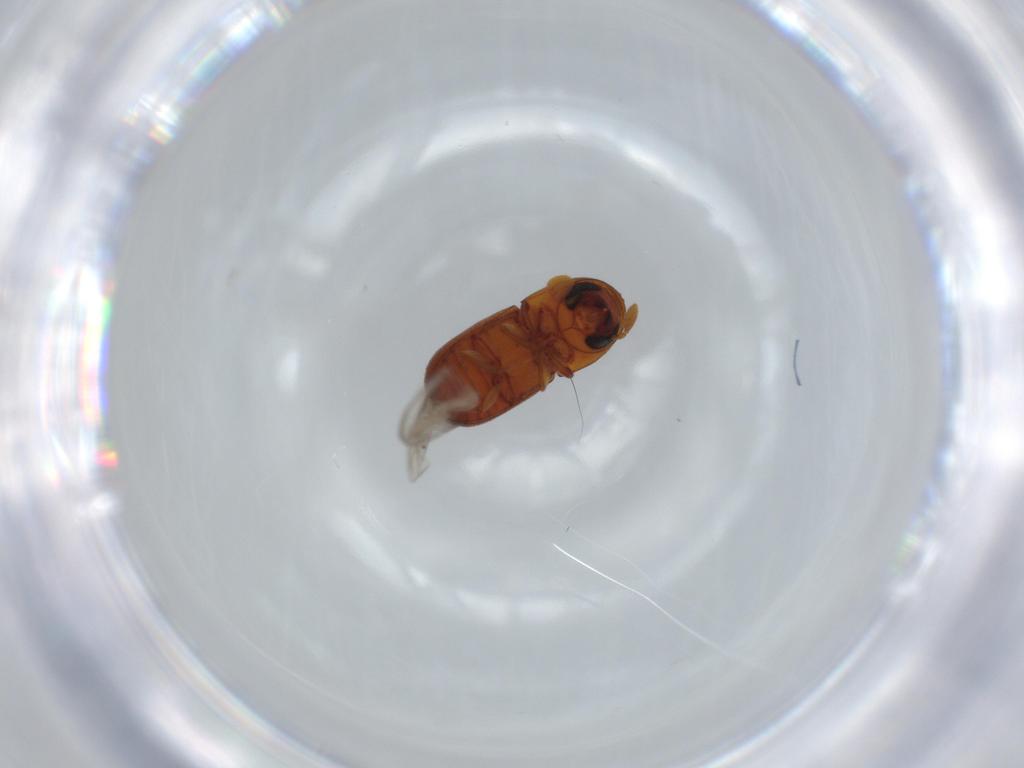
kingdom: Animalia
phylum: Arthropoda
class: Insecta
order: Coleoptera
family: Curculionidae
